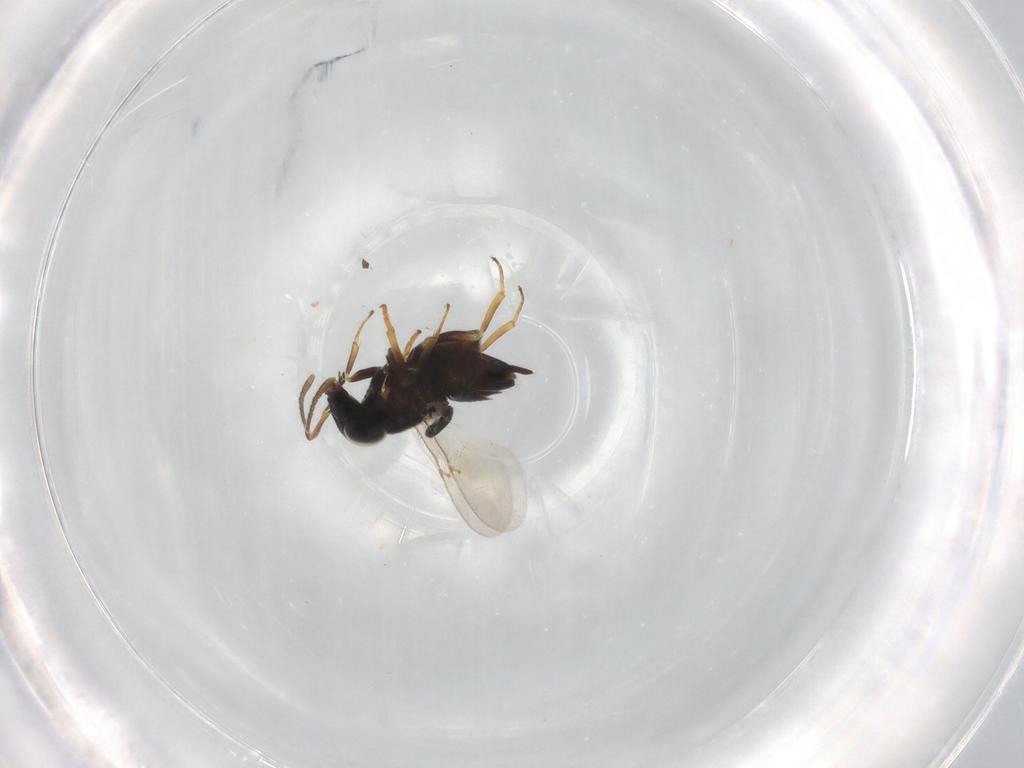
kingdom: Animalia
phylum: Arthropoda
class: Insecta
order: Hymenoptera
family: Encyrtidae
